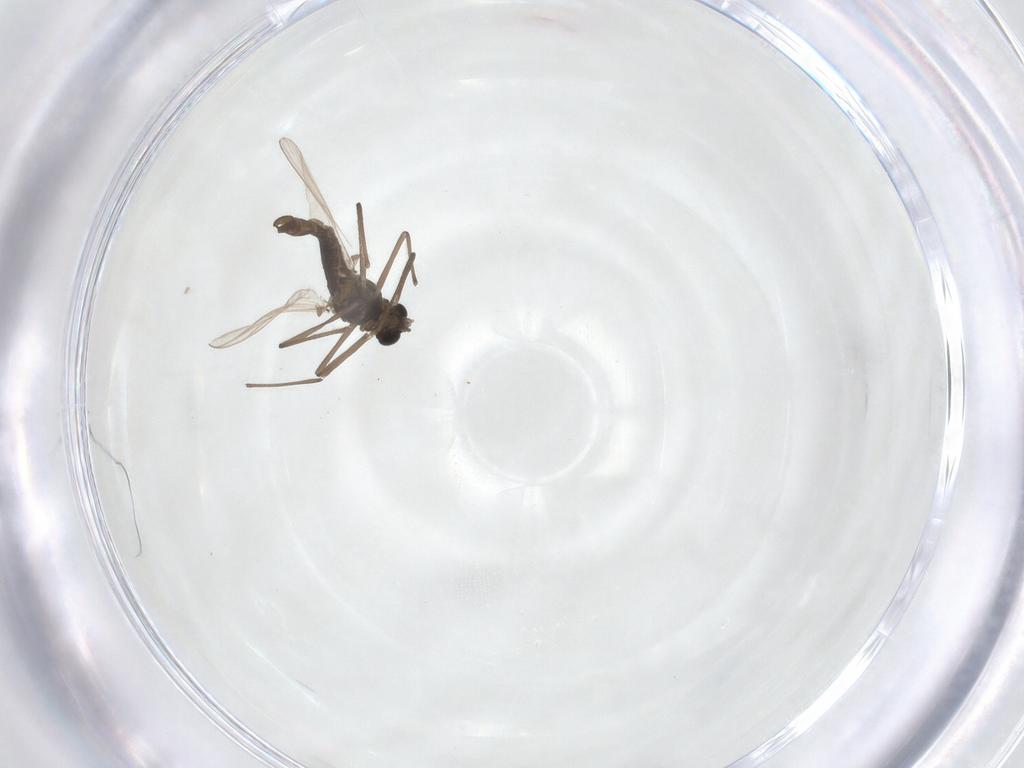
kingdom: Animalia
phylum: Arthropoda
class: Insecta
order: Diptera
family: Chironomidae
